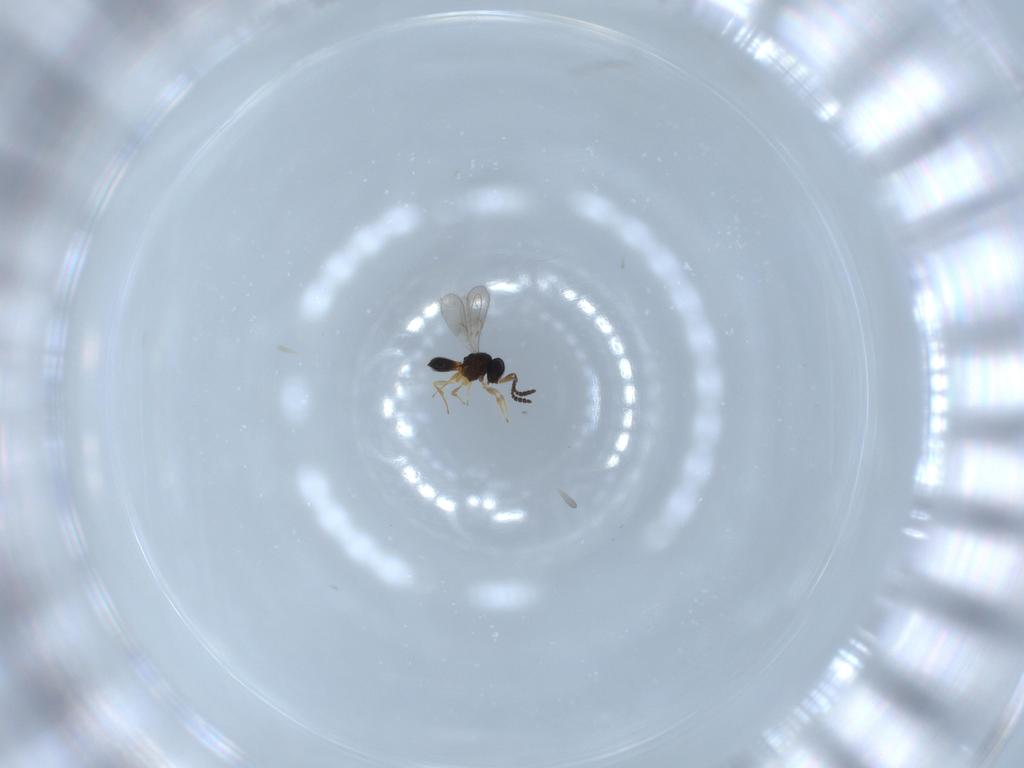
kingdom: Animalia
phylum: Arthropoda
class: Insecta
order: Hymenoptera
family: Scelionidae
